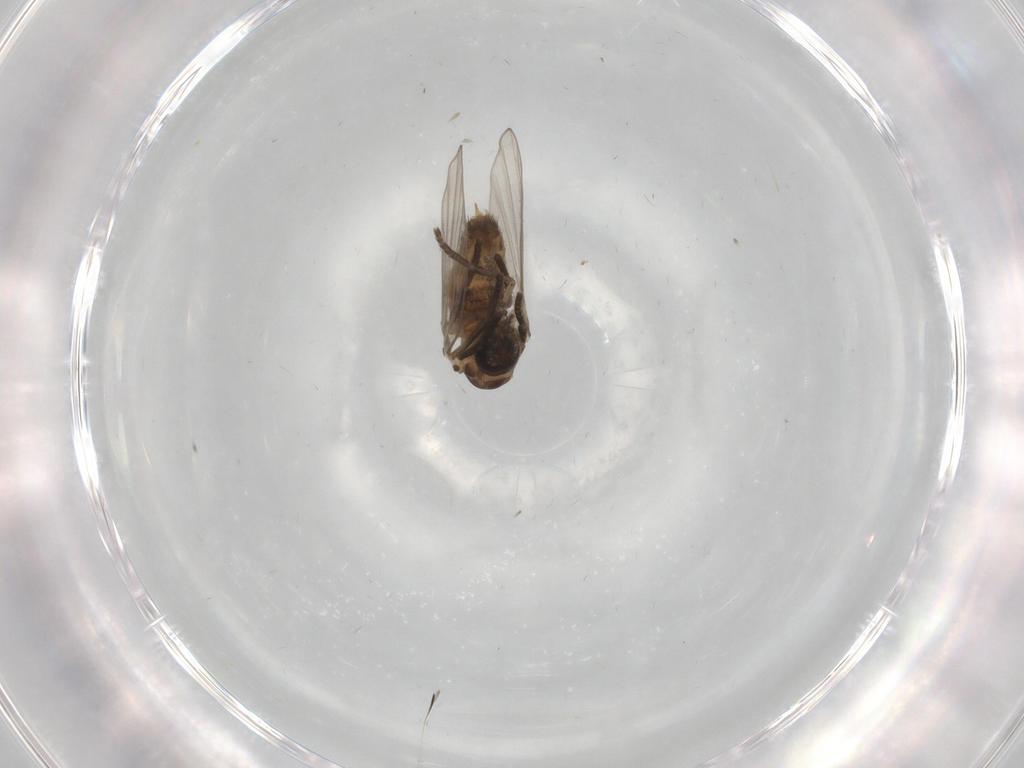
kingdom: Animalia
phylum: Arthropoda
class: Insecta
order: Diptera
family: Psychodidae
